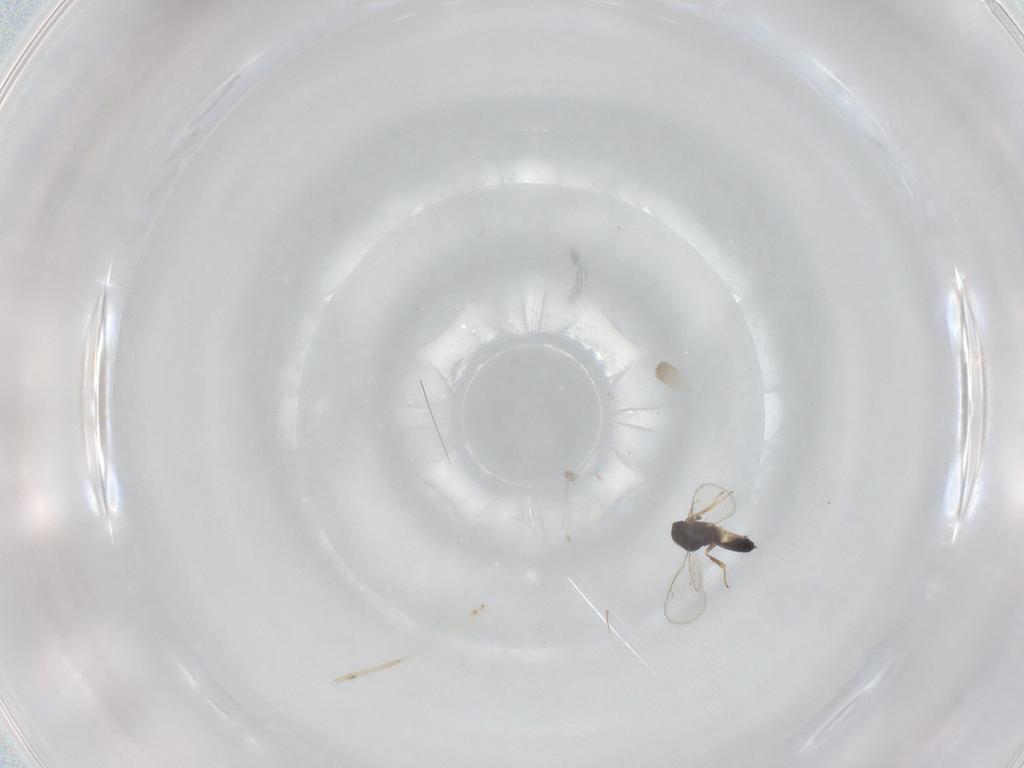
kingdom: Animalia
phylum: Arthropoda
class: Insecta
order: Hymenoptera
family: Eupelmidae
